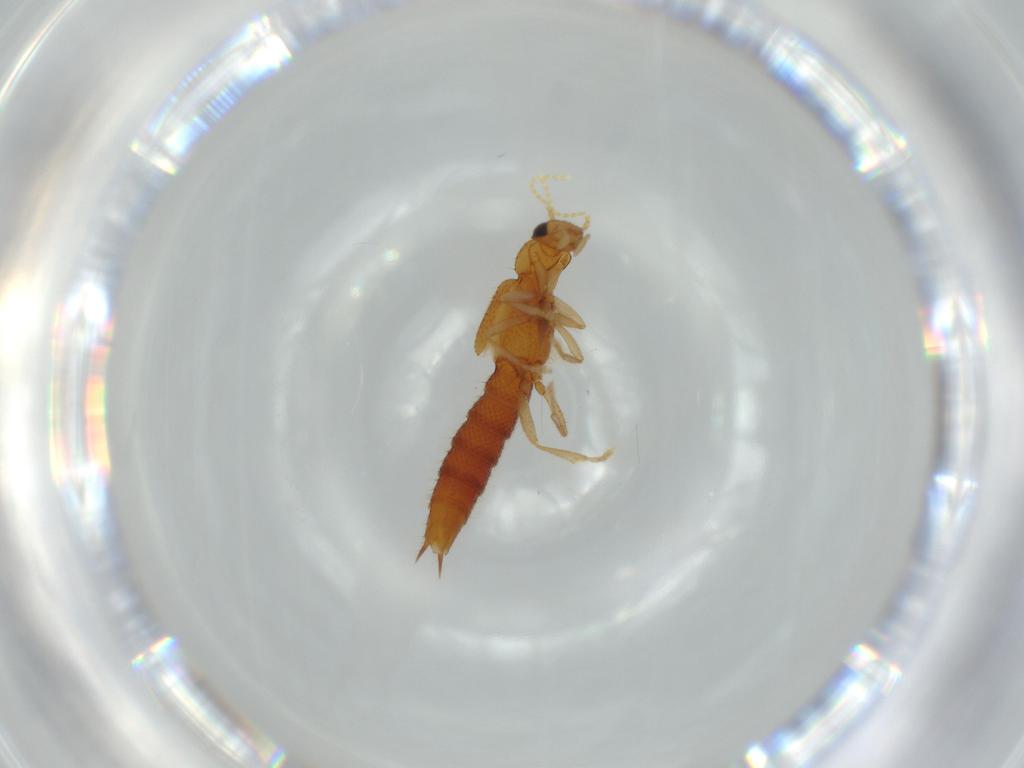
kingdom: Animalia
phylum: Arthropoda
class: Insecta
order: Coleoptera
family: Staphylinidae
